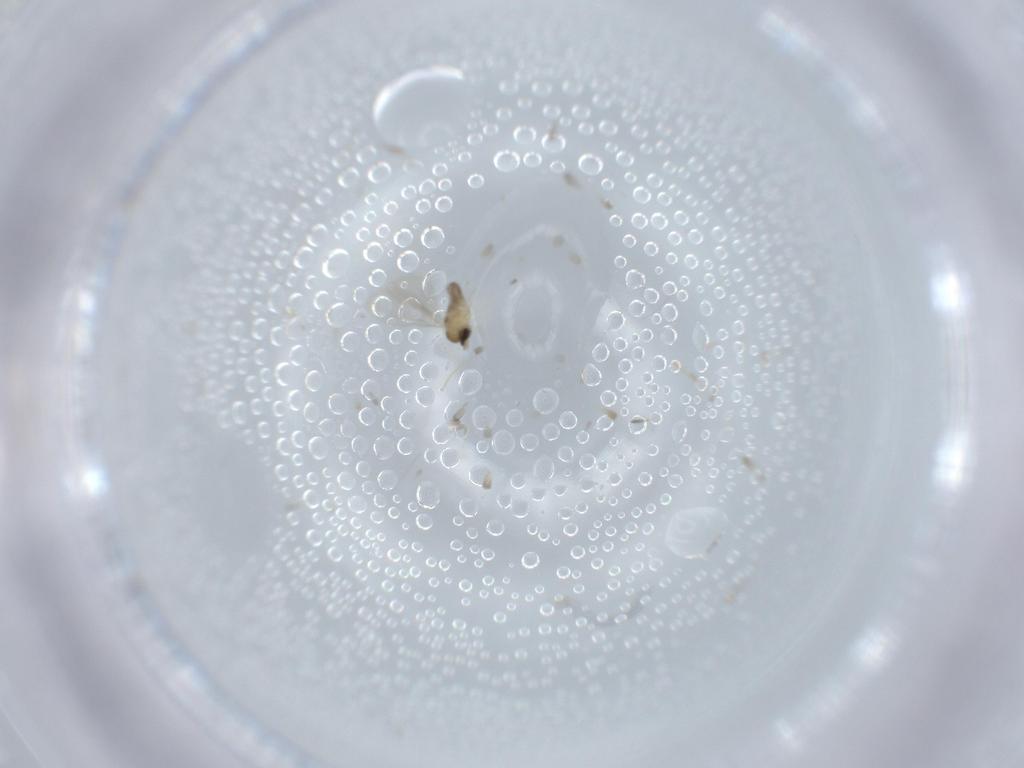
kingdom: Animalia
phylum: Arthropoda
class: Insecta
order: Diptera
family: Cecidomyiidae
